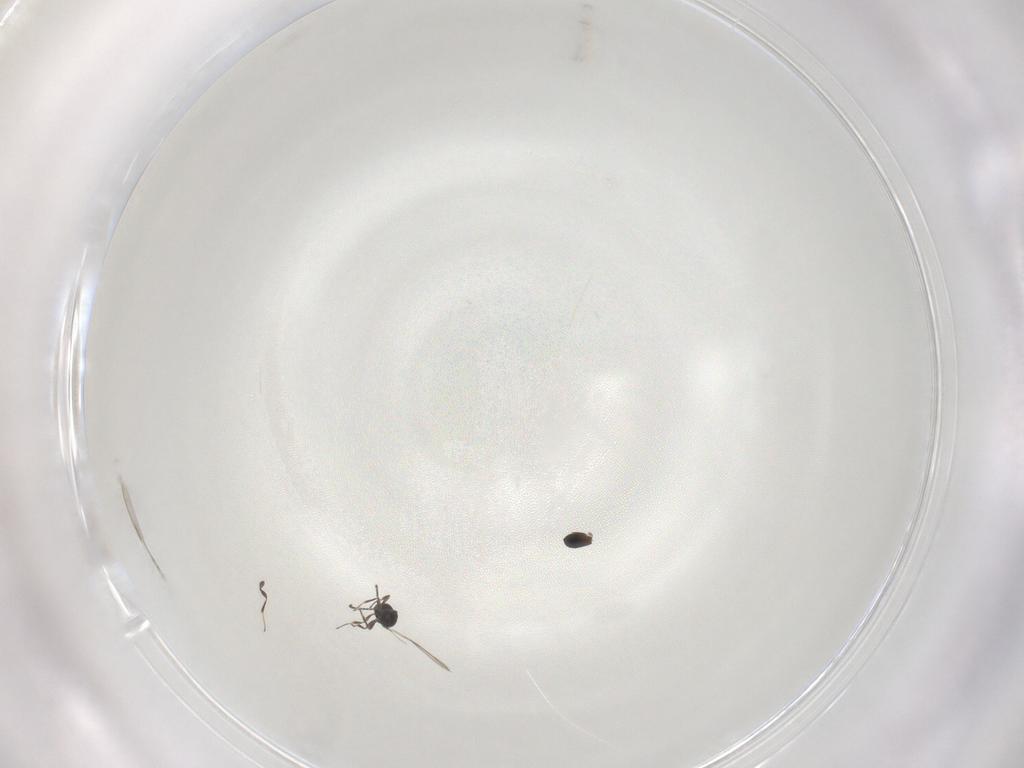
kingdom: Animalia
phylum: Arthropoda
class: Insecta
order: Hymenoptera
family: Scelionidae
